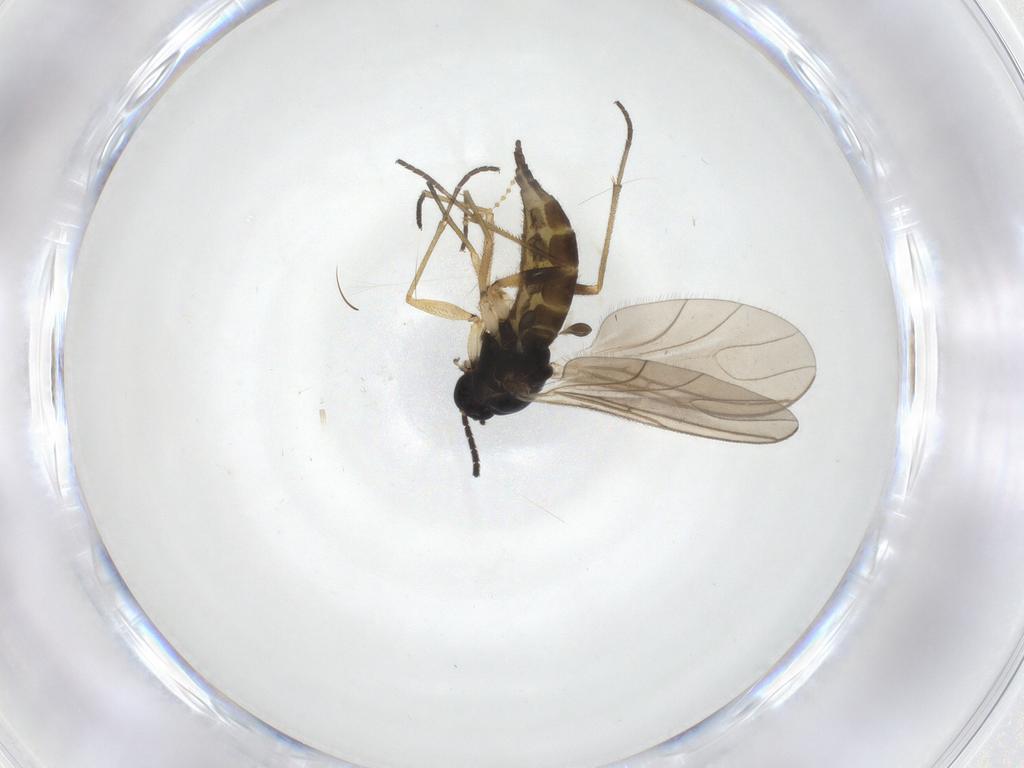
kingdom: Animalia
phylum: Arthropoda
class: Insecta
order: Diptera
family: Sciaridae
